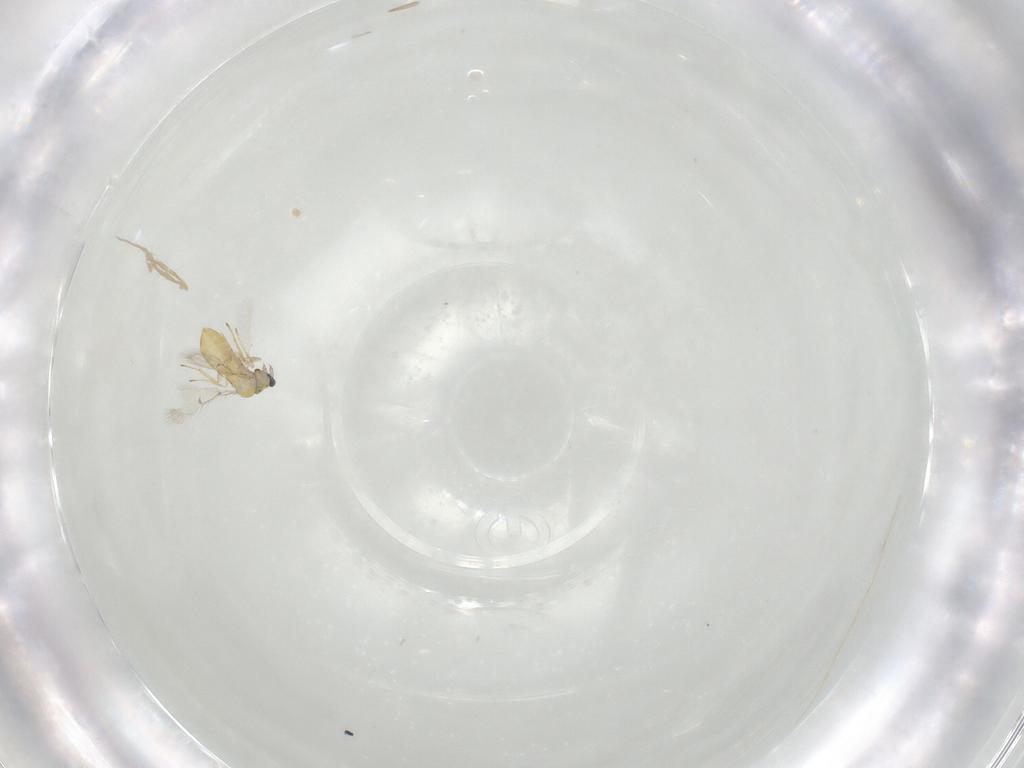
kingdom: Animalia
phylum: Arthropoda
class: Insecta
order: Hymenoptera
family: Trichogrammatidae
